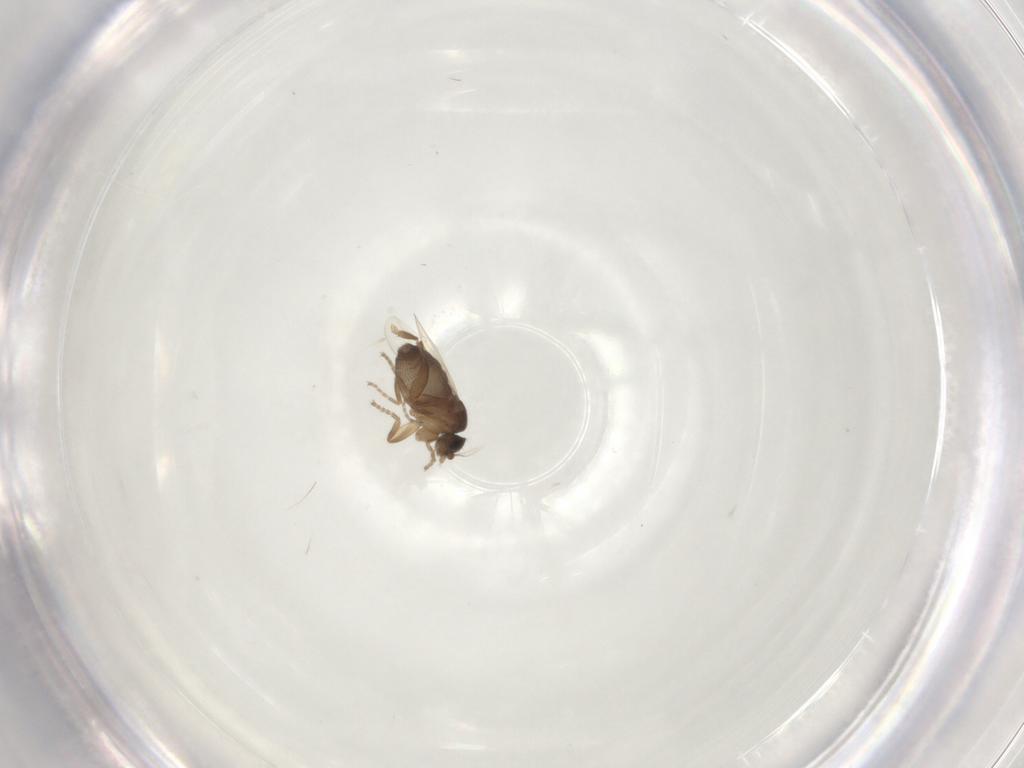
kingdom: Animalia
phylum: Arthropoda
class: Insecta
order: Diptera
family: Phoridae
